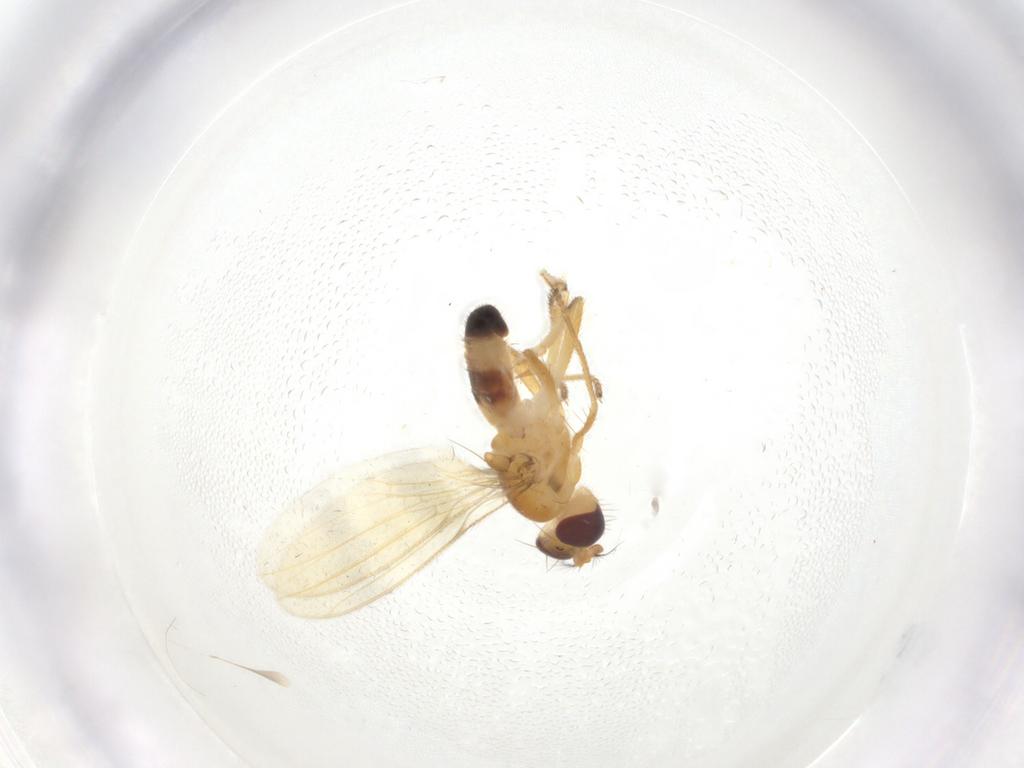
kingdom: Animalia
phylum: Arthropoda
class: Insecta
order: Diptera
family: Periscelididae
